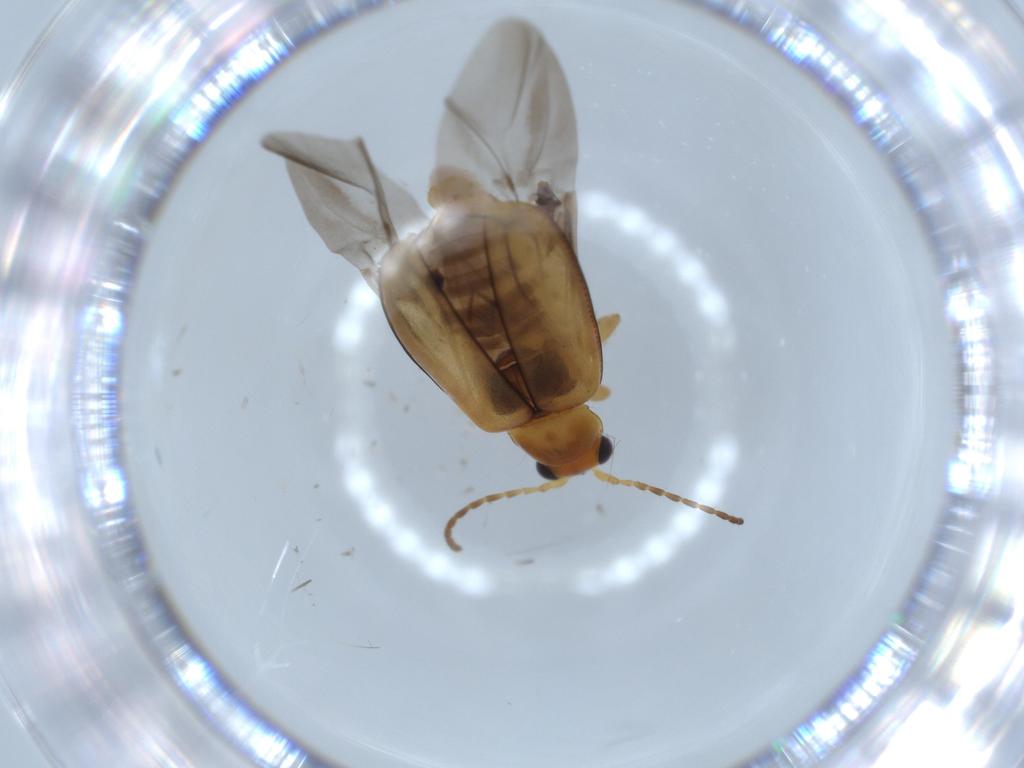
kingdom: Animalia
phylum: Arthropoda
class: Insecta
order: Coleoptera
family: Chrysomelidae
